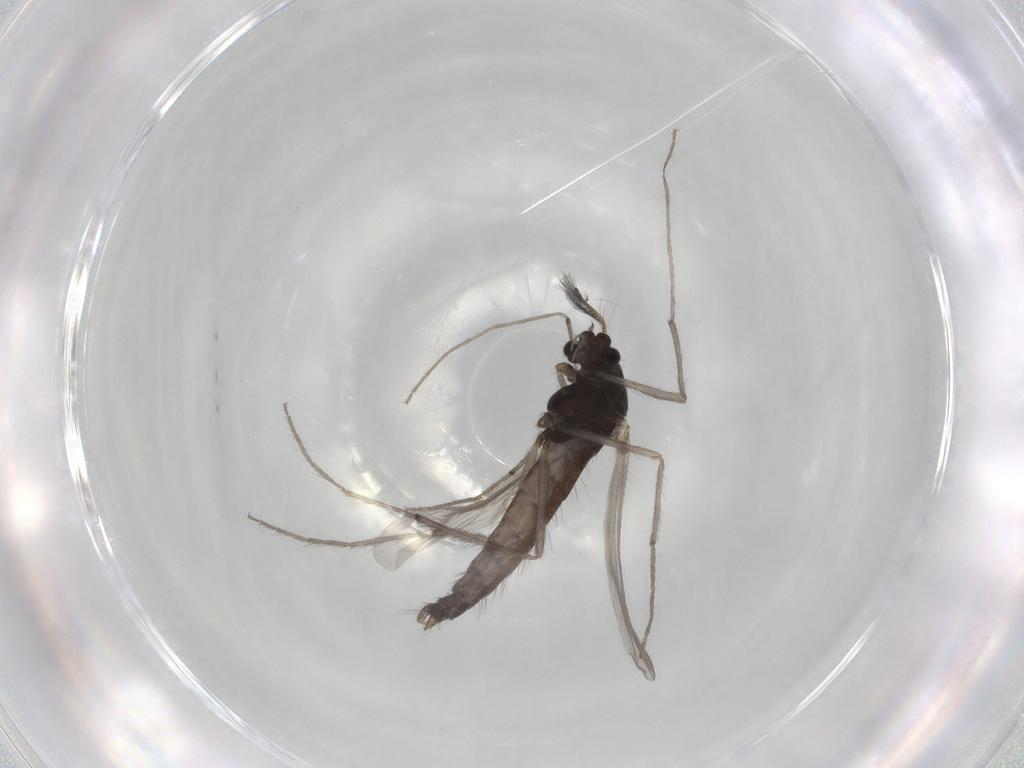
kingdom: Animalia
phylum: Arthropoda
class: Insecta
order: Diptera
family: Chironomidae
